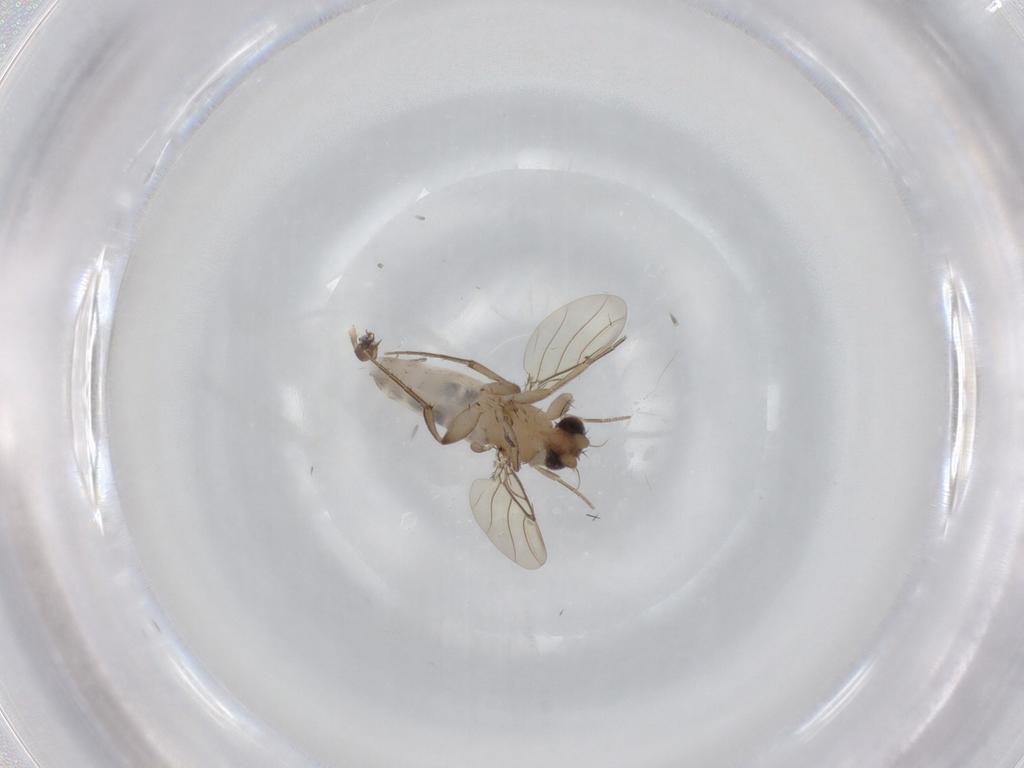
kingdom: Animalia
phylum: Arthropoda
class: Insecta
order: Diptera
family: Phoridae
